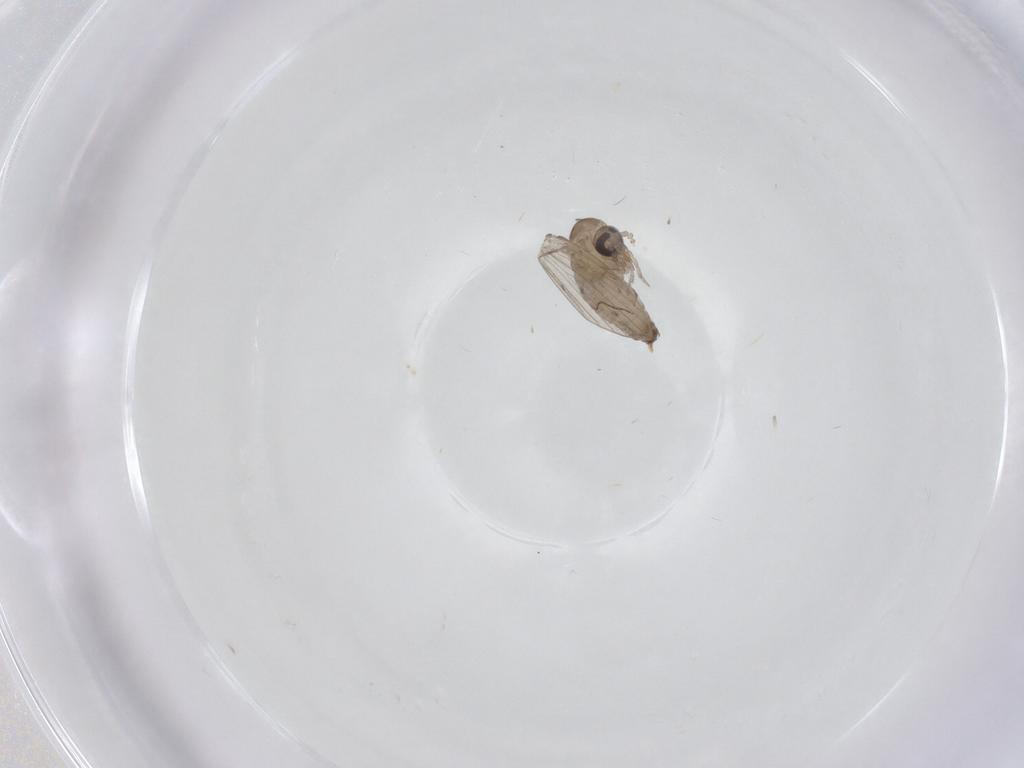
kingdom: Animalia
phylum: Arthropoda
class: Insecta
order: Diptera
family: Psychodidae
